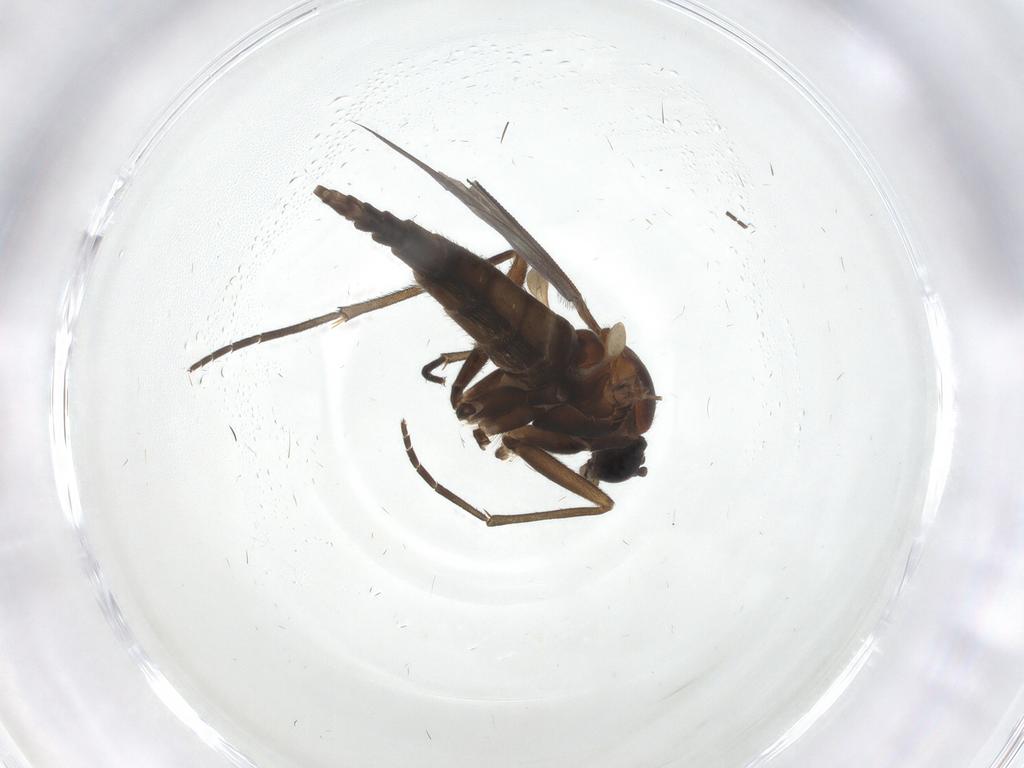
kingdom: Animalia
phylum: Arthropoda
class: Insecta
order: Diptera
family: Sciaridae
